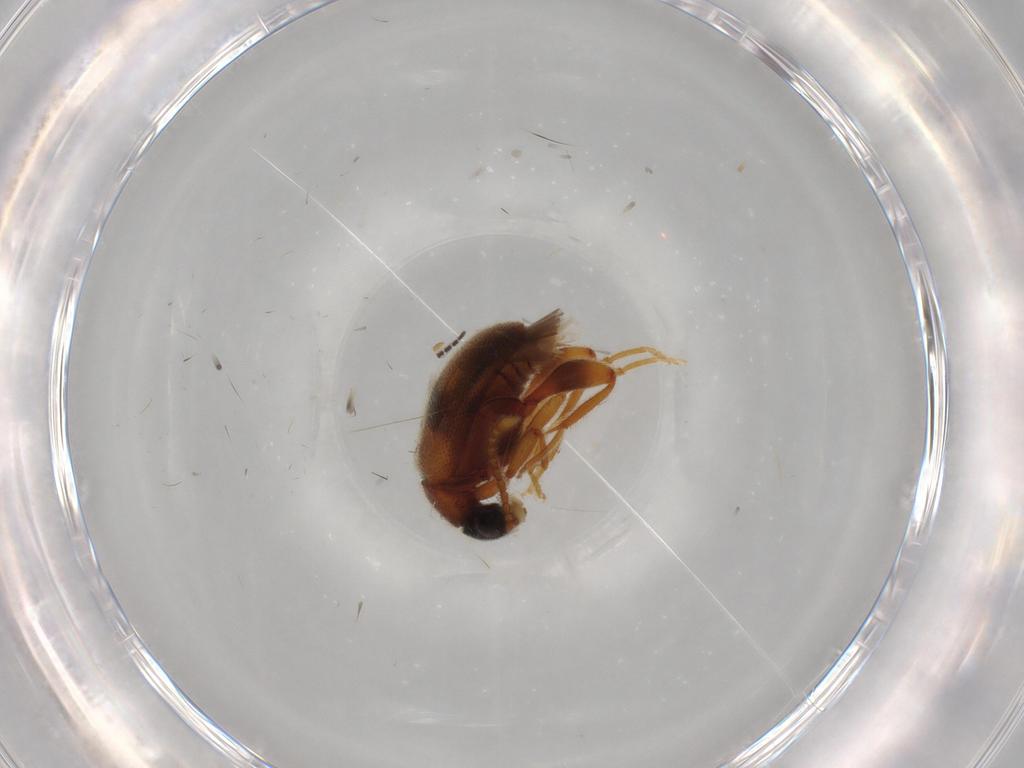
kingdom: Animalia
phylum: Arthropoda
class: Insecta
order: Coleoptera
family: Aderidae
